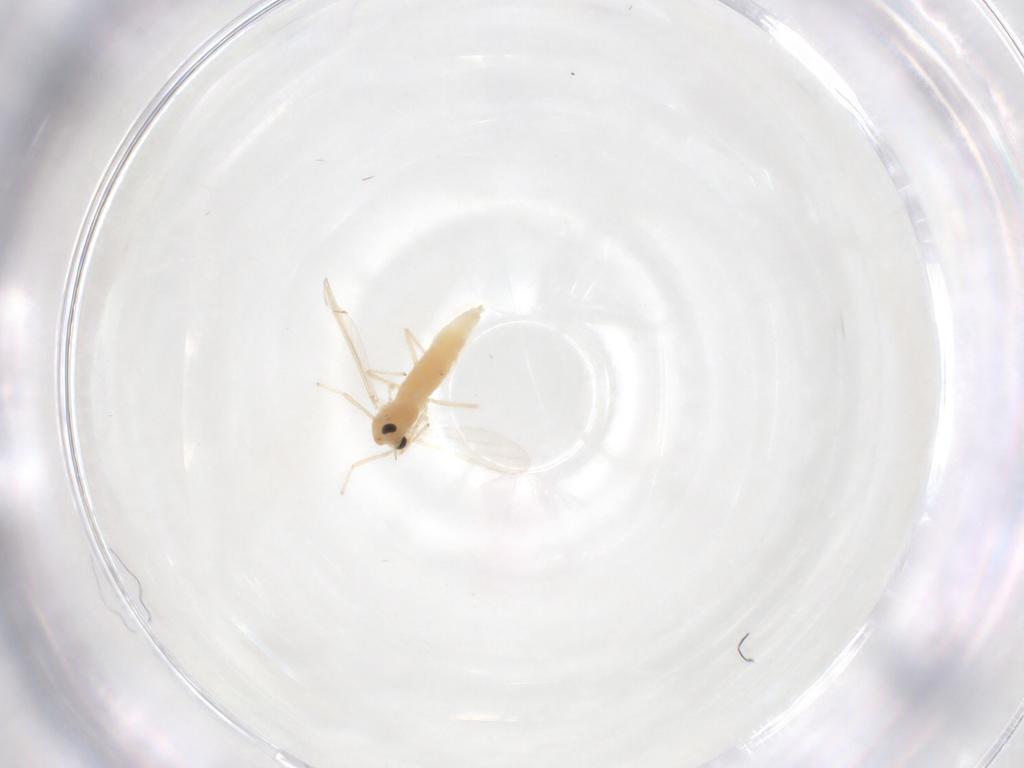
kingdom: Animalia
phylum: Arthropoda
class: Insecta
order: Diptera
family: Chironomidae
